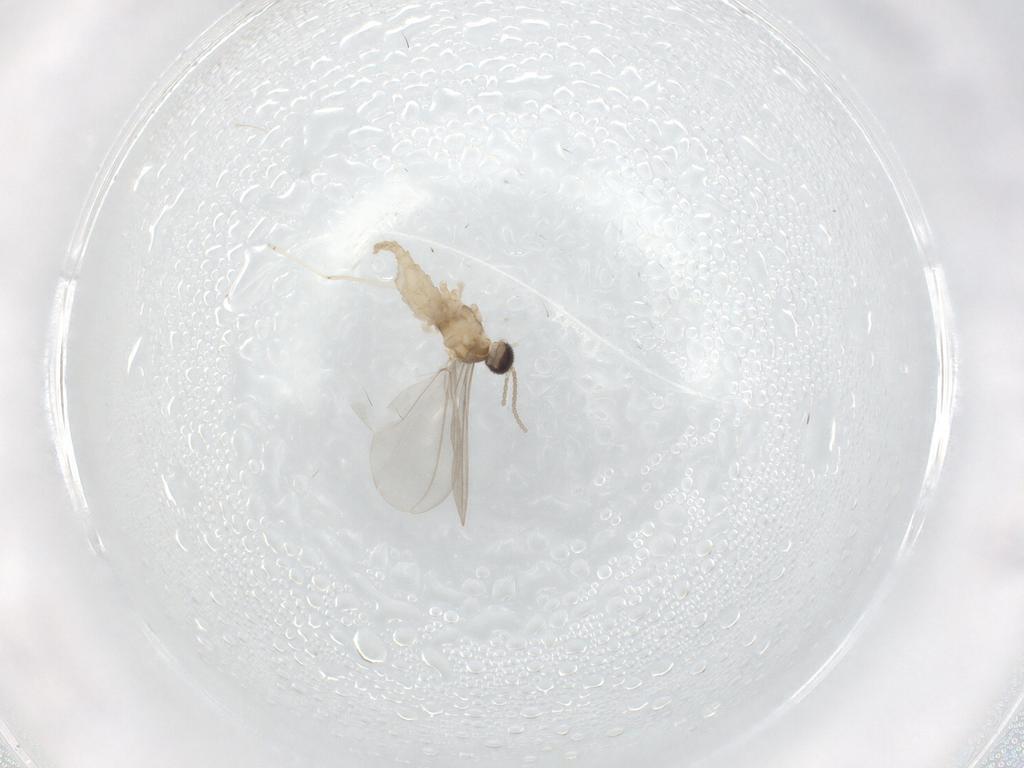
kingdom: Animalia
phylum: Arthropoda
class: Insecta
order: Diptera
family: Cecidomyiidae
